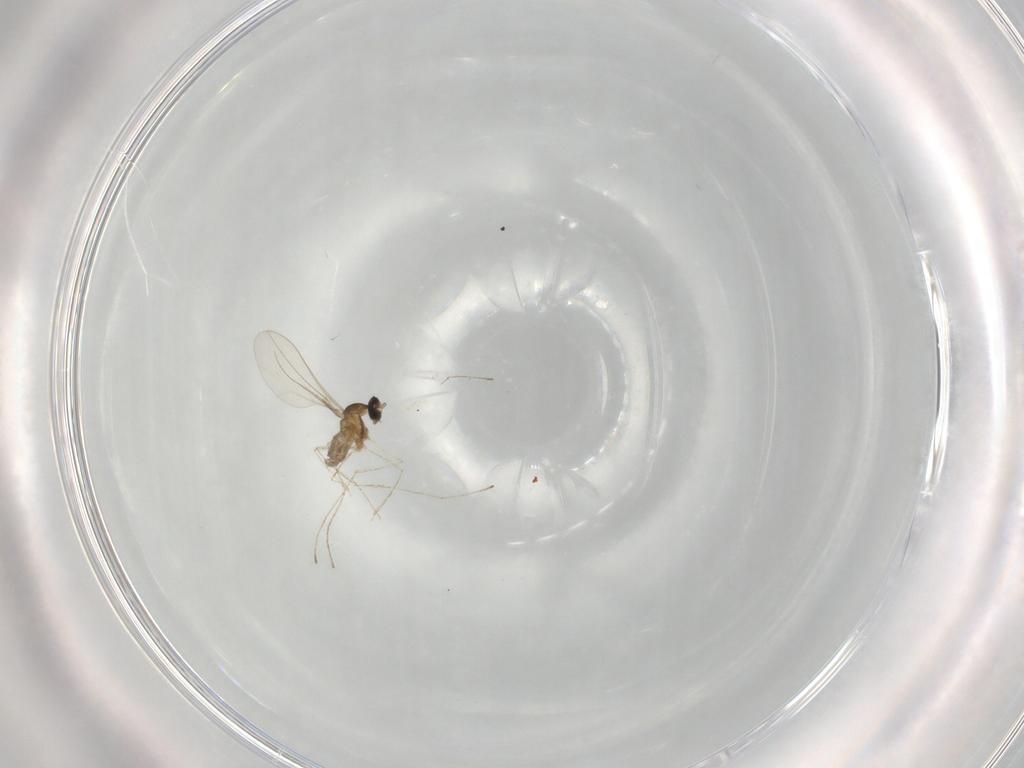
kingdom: Animalia
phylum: Arthropoda
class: Insecta
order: Diptera
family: Cecidomyiidae
